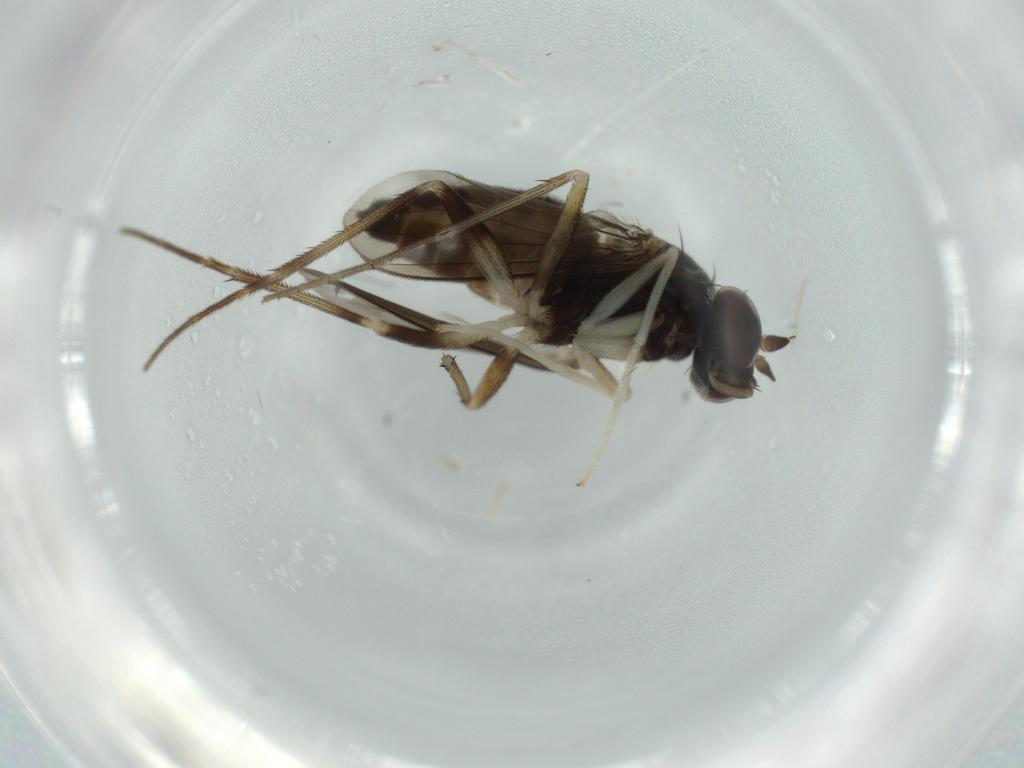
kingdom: Animalia
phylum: Arthropoda
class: Insecta
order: Diptera
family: Dolichopodidae
